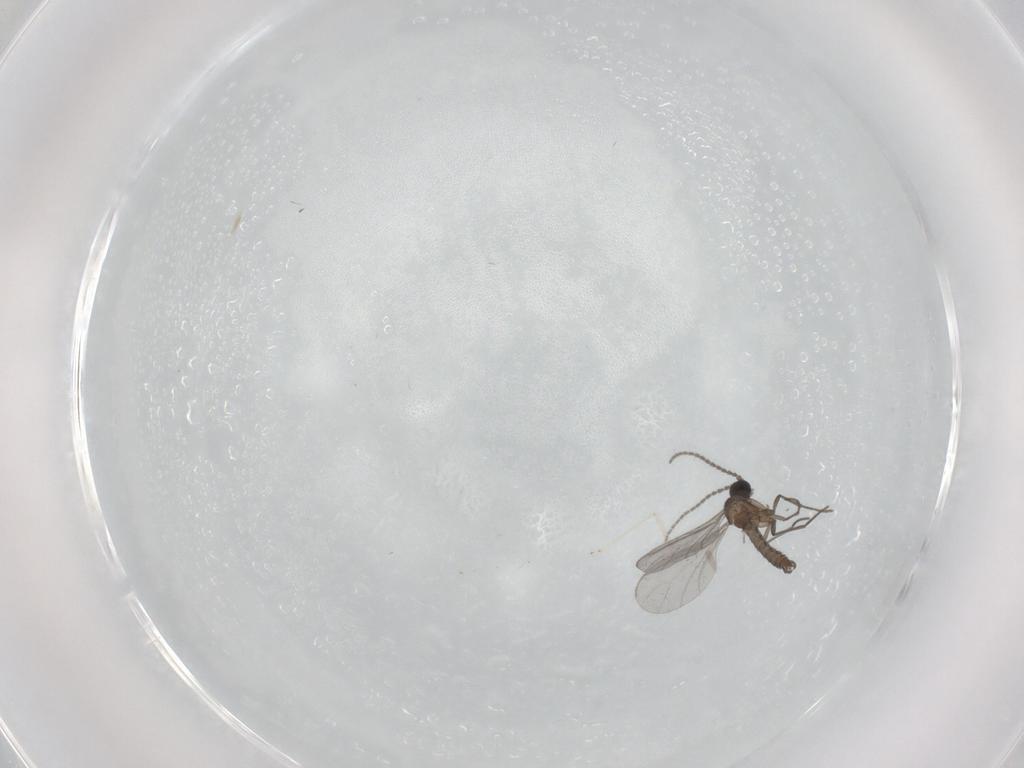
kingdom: Animalia
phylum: Arthropoda
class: Insecta
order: Diptera
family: Sciaridae
